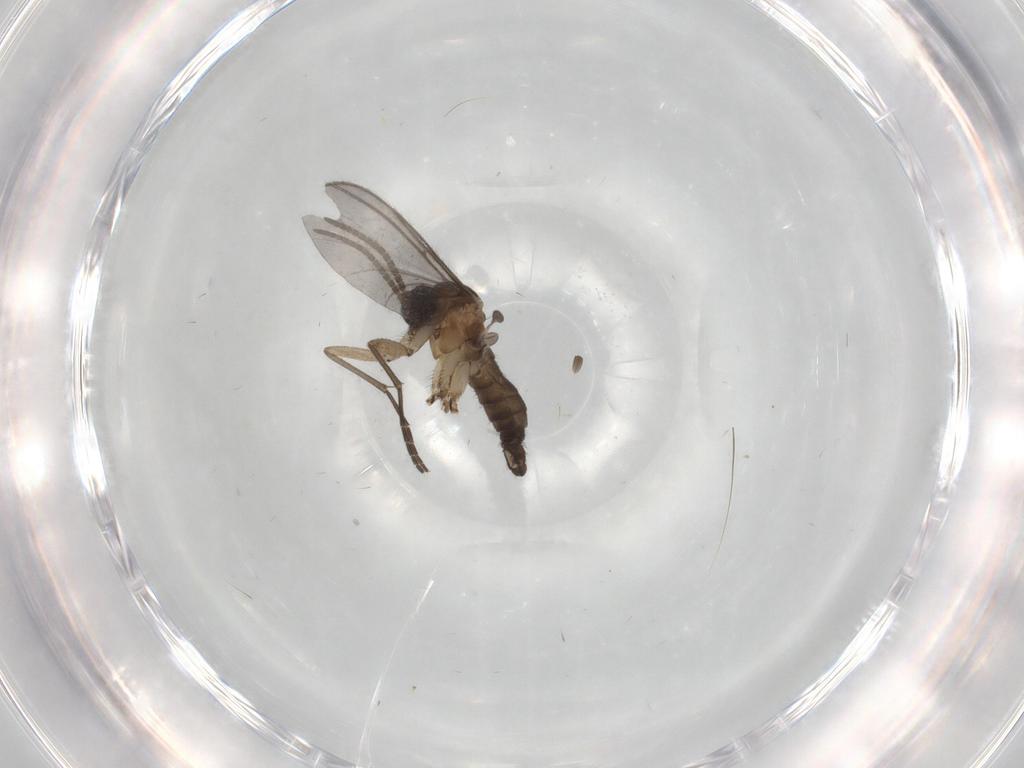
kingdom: Animalia
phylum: Arthropoda
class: Insecta
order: Diptera
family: Cecidomyiidae
